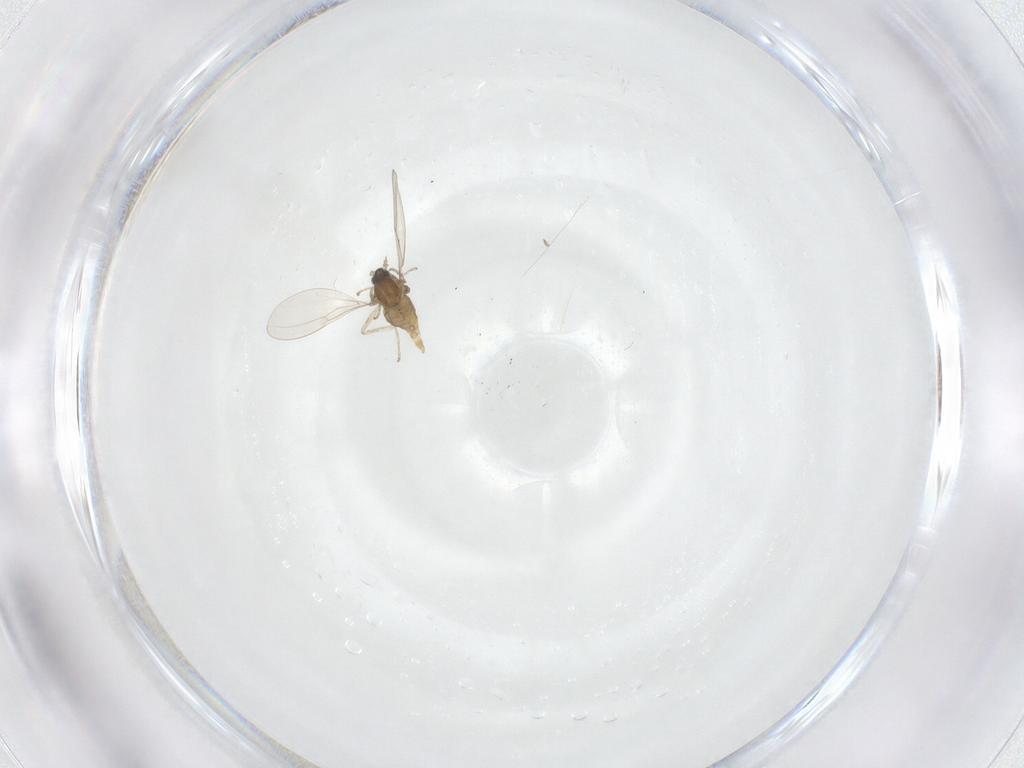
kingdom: Animalia
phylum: Arthropoda
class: Insecta
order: Diptera
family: Cecidomyiidae
